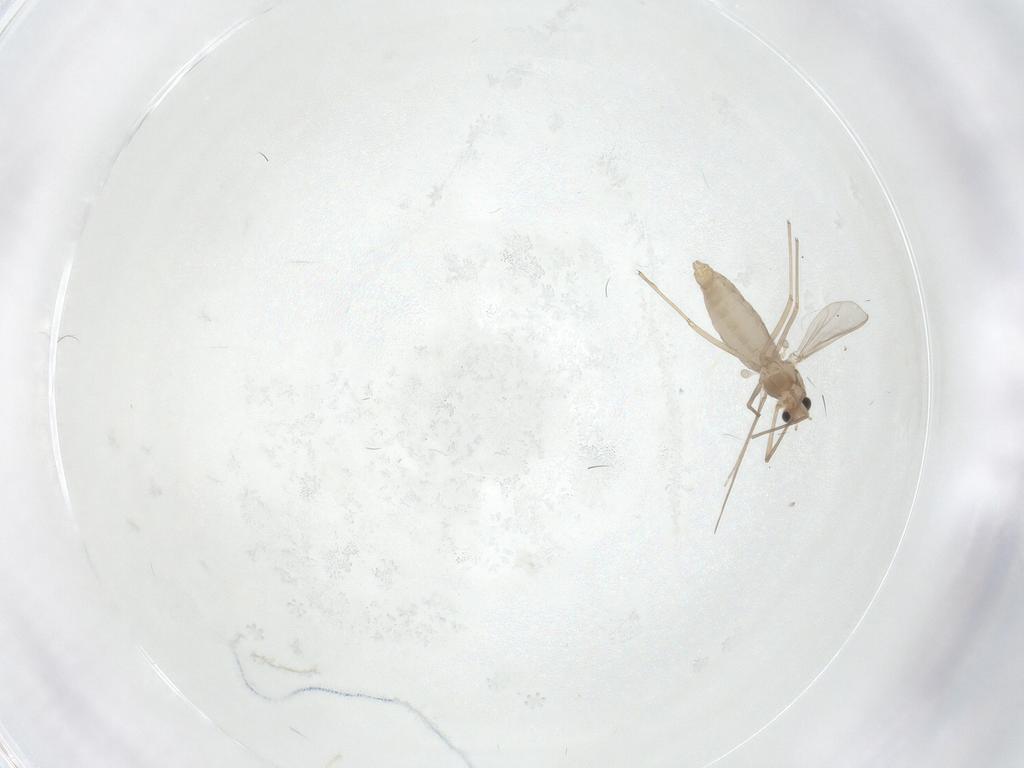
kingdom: Animalia
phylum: Arthropoda
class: Insecta
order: Diptera
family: Chironomidae
